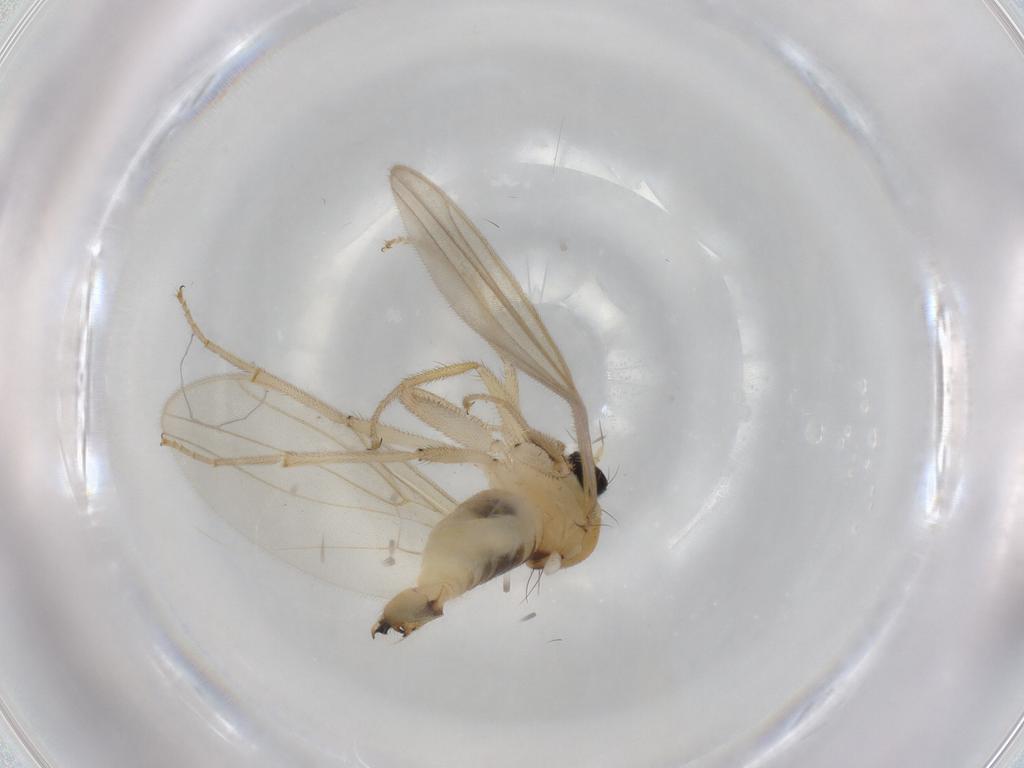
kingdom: Animalia
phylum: Arthropoda
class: Insecta
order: Diptera
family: Hybotidae
